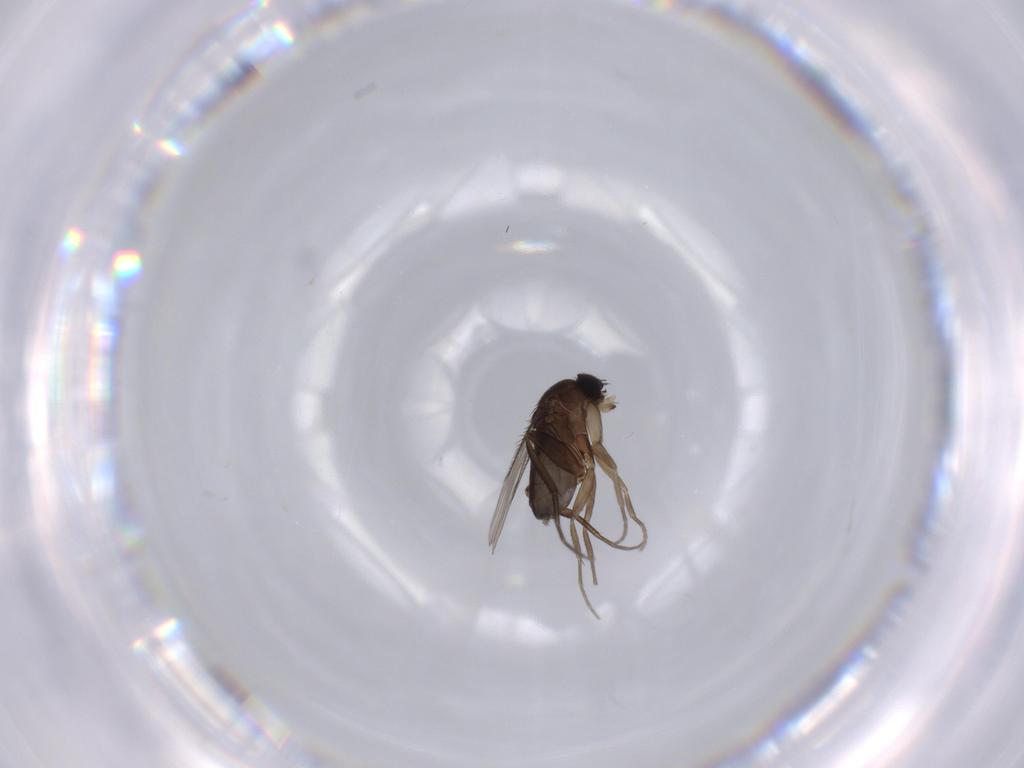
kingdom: Animalia
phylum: Arthropoda
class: Insecta
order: Diptera
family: Phoridae
